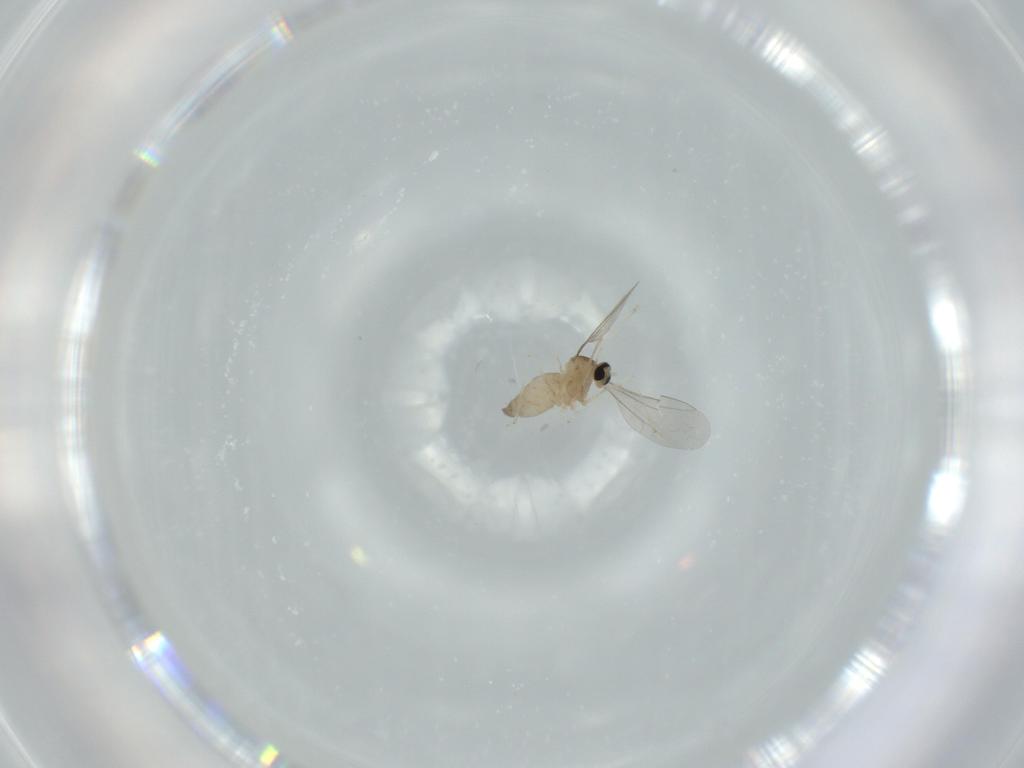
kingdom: Animalia
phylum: Arthropoda
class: Insecta
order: Diptera
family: Cecidomyiidae
